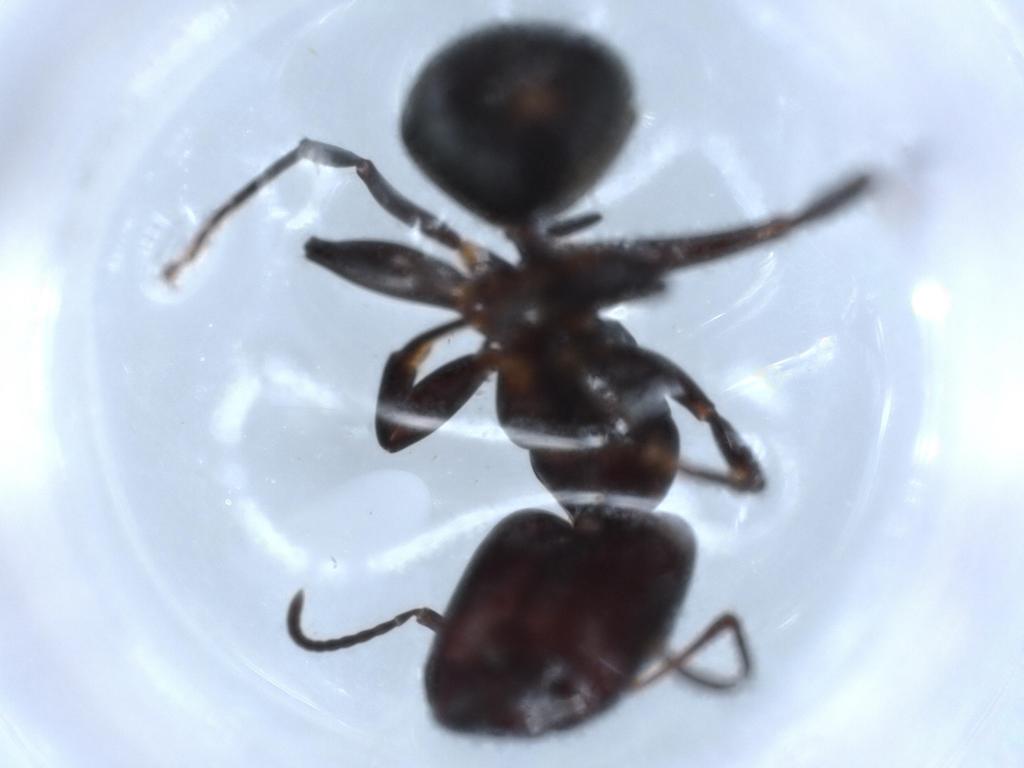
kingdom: Animalia
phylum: Arthropoda
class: Insecta
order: Hymenoptera
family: Formicidae
